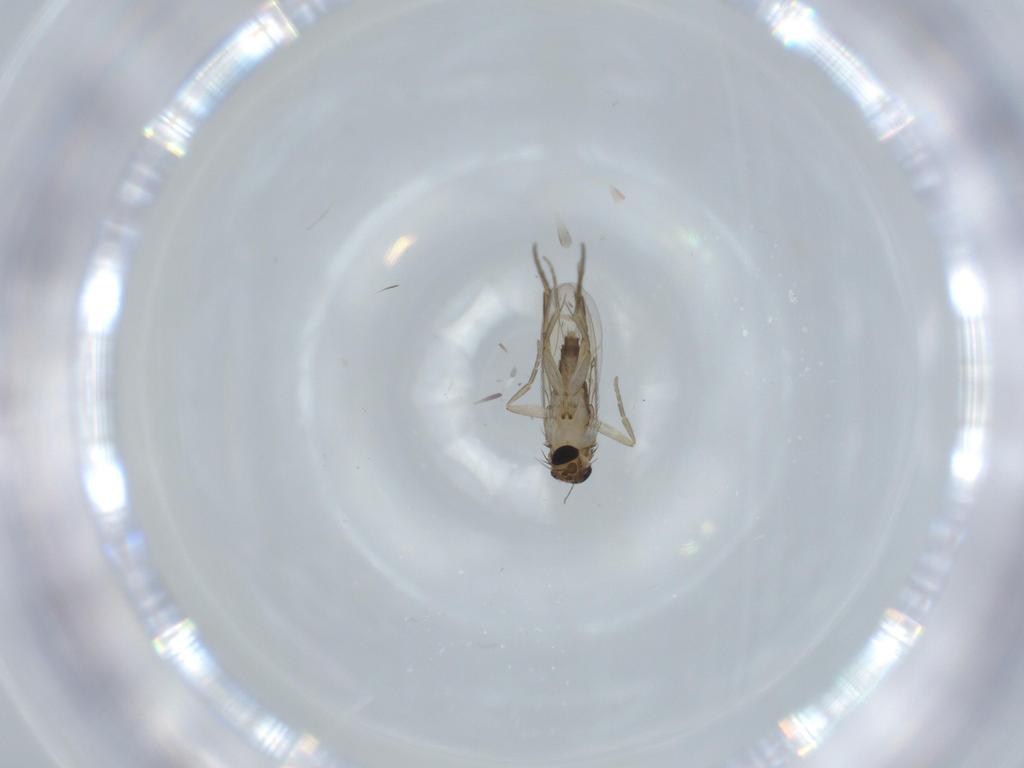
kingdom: Animalia
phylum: Arthropoda
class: Insecta
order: Diptera
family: Phoridae
